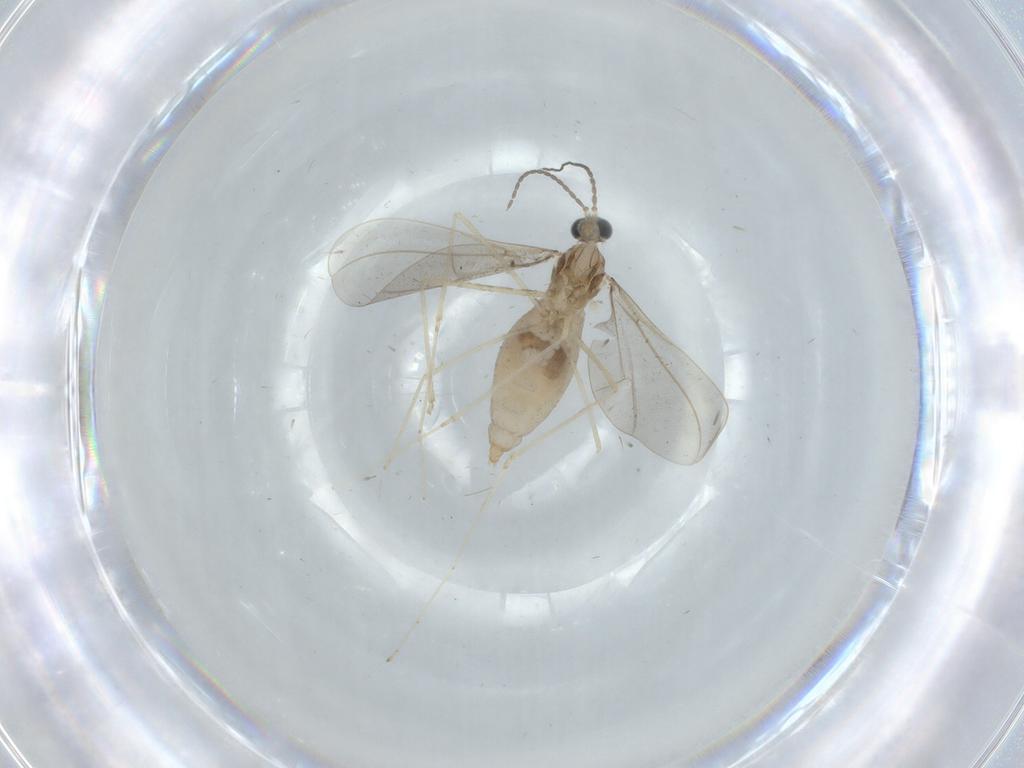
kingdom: Animalia
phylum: Arthropoda
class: Insecta
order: Diptera
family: Cecidomyiidae
